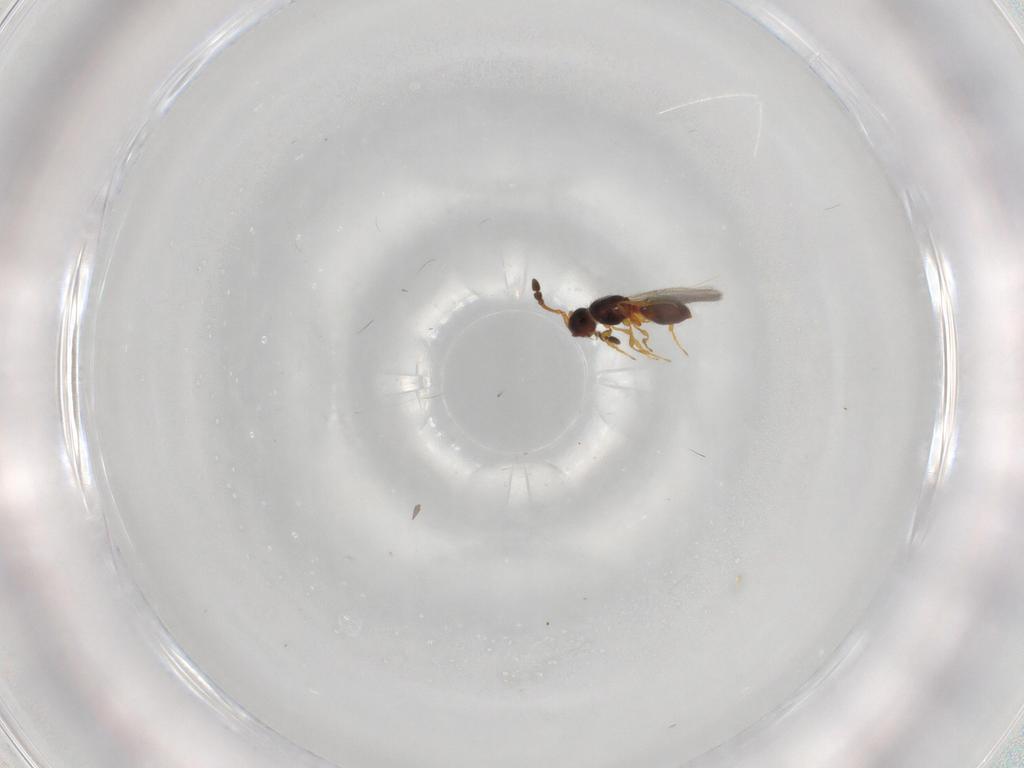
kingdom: Animalia
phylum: Arthropoda
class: Insecta
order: Hymenoptera
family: Diapriidae
